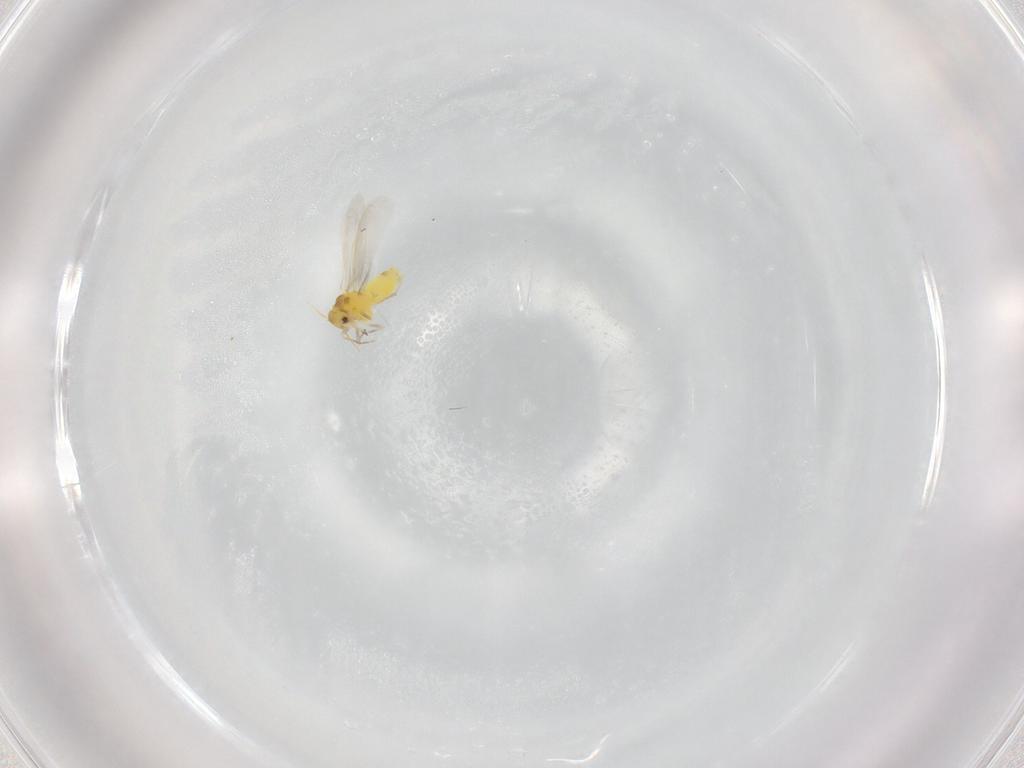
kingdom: Animalia
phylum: Arthropoda
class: Insecta
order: Hemiptera
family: Aleyrodidae
